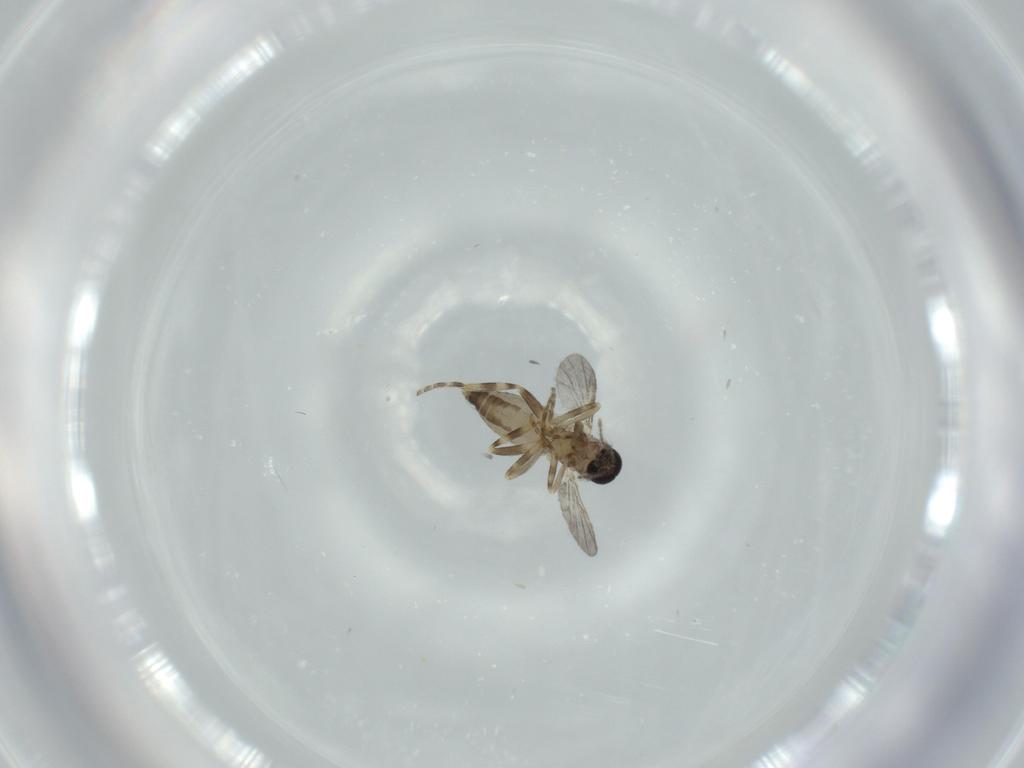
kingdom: Animalia
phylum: Arthropoda
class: Insecta
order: Diptera
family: Ceratopogonidae
